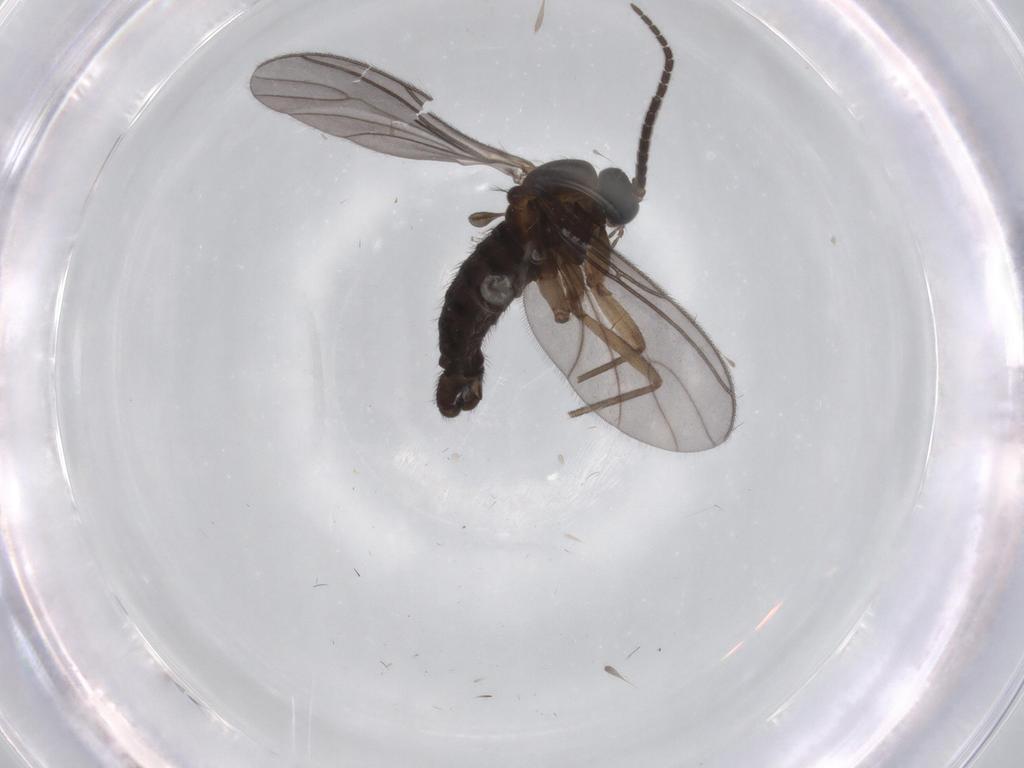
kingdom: Animalia
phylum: Arthropoda
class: Insecta
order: Diptera
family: Sciaridae
